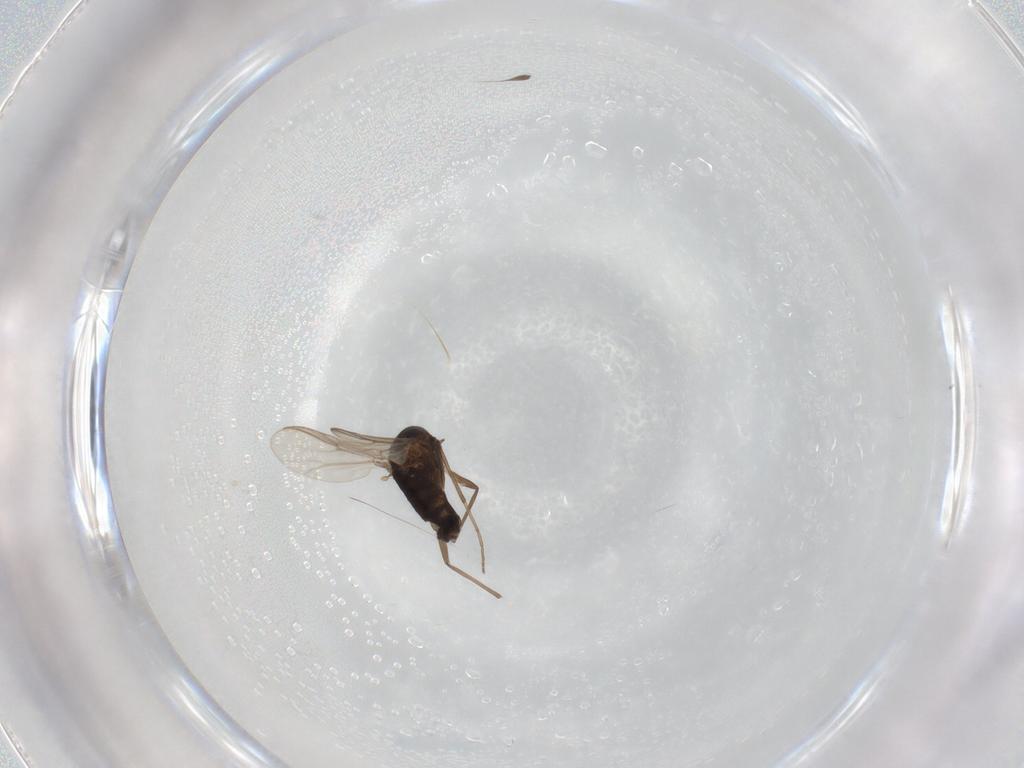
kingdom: Animalia
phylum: Arthropoda
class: Insecta
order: Diptera
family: Chironomidae
